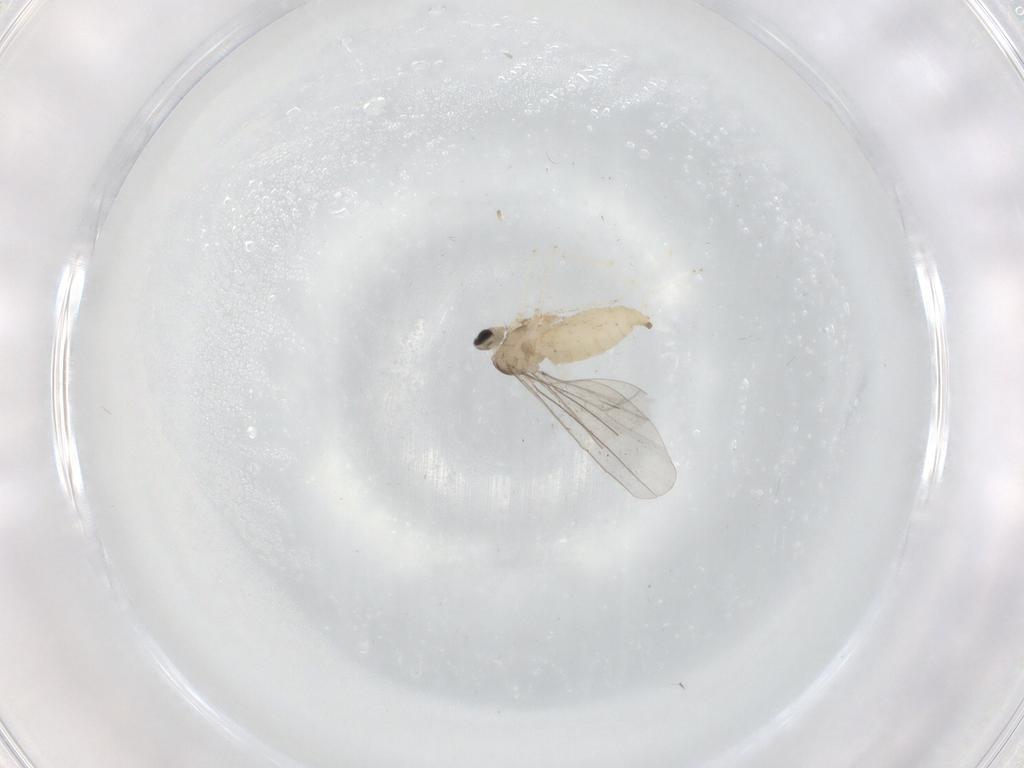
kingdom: Animalia
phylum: Arthropoda
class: Insecta
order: Diptera
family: Cecidomyiidae
